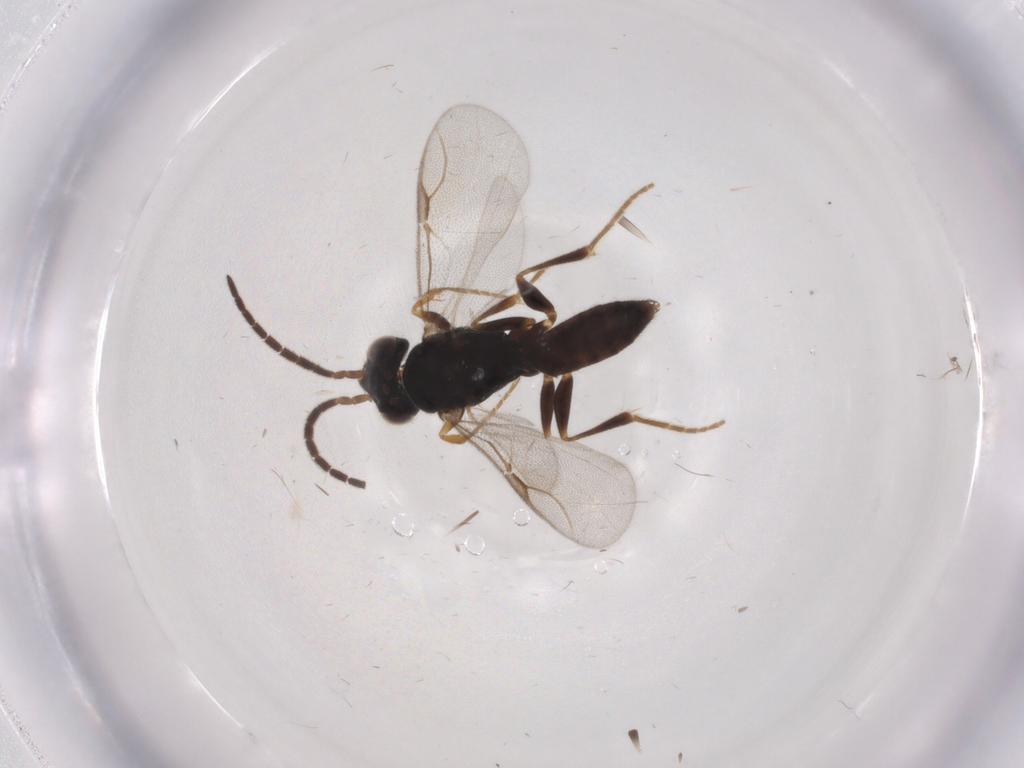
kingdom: Animalia
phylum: Arthropoda
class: Insecta
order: Hymenoptera
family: Dryinidae
